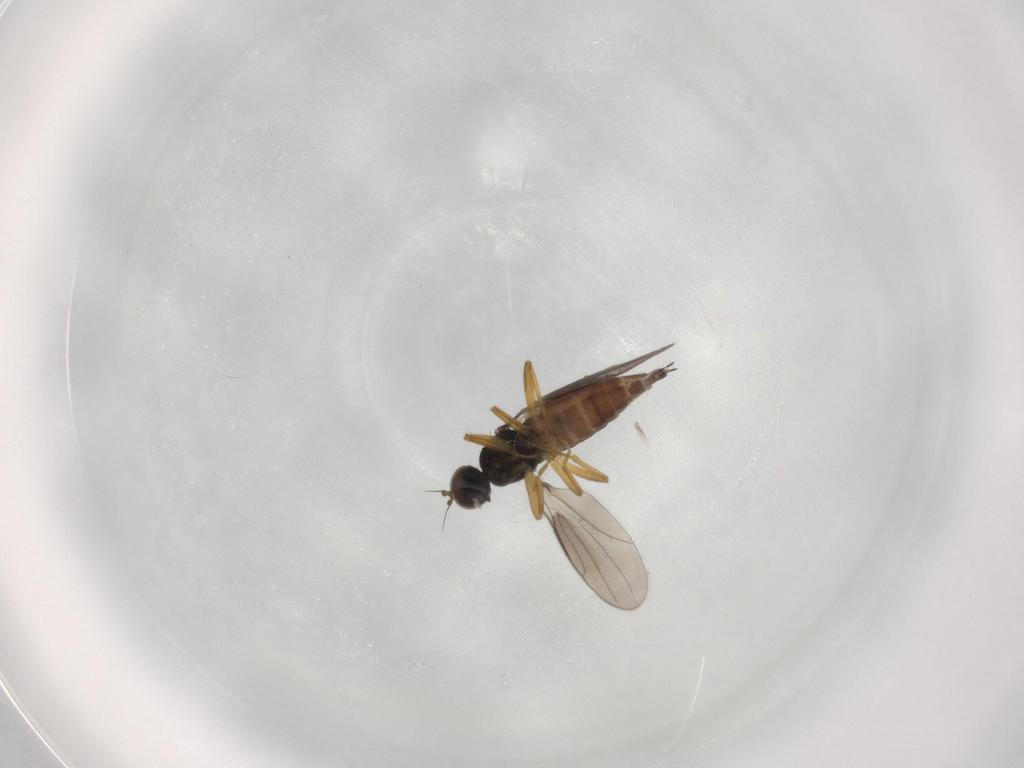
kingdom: Animalia
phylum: Arthropoda
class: Insecta
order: Diptera
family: Hybotidae
